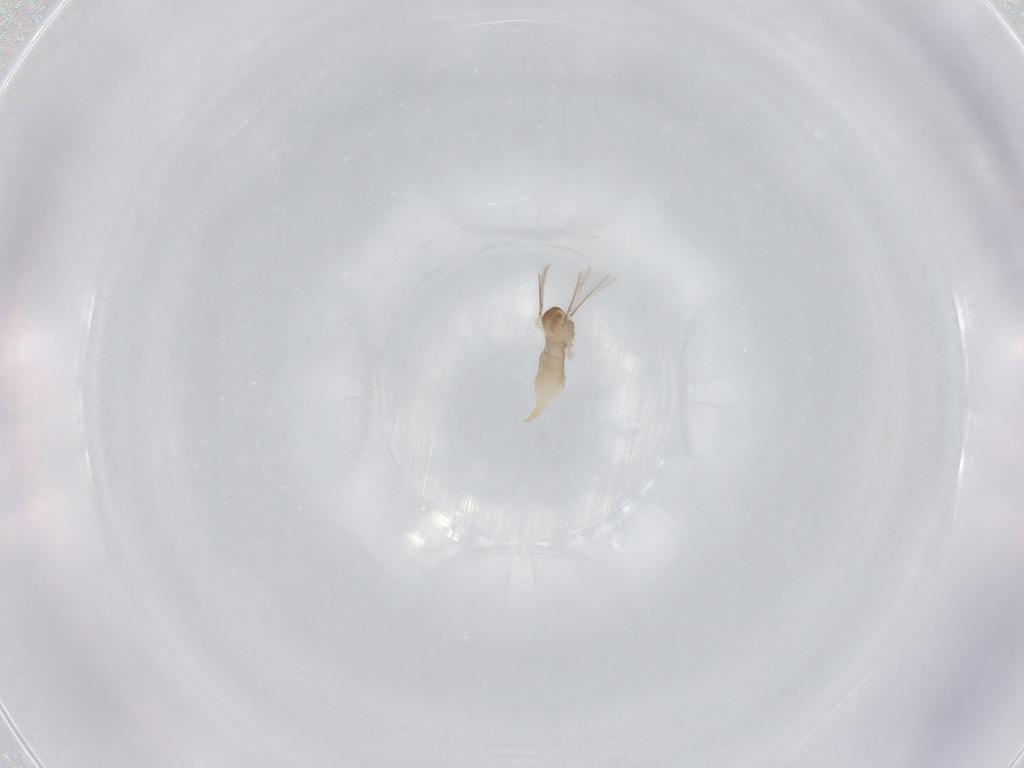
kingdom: Animalia
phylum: Arthropoda
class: Insecta
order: Diptera
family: Cecidomyiidae
